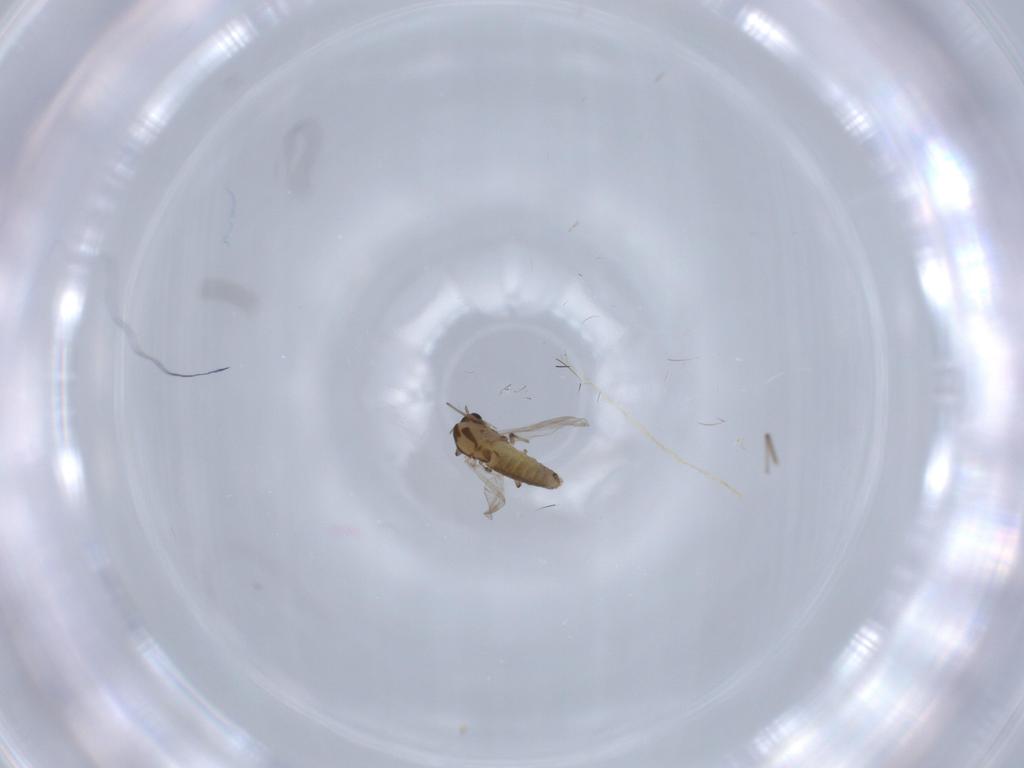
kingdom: Animalia
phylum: Arthropoda
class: Insecta
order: Diptera
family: Chironomidae
